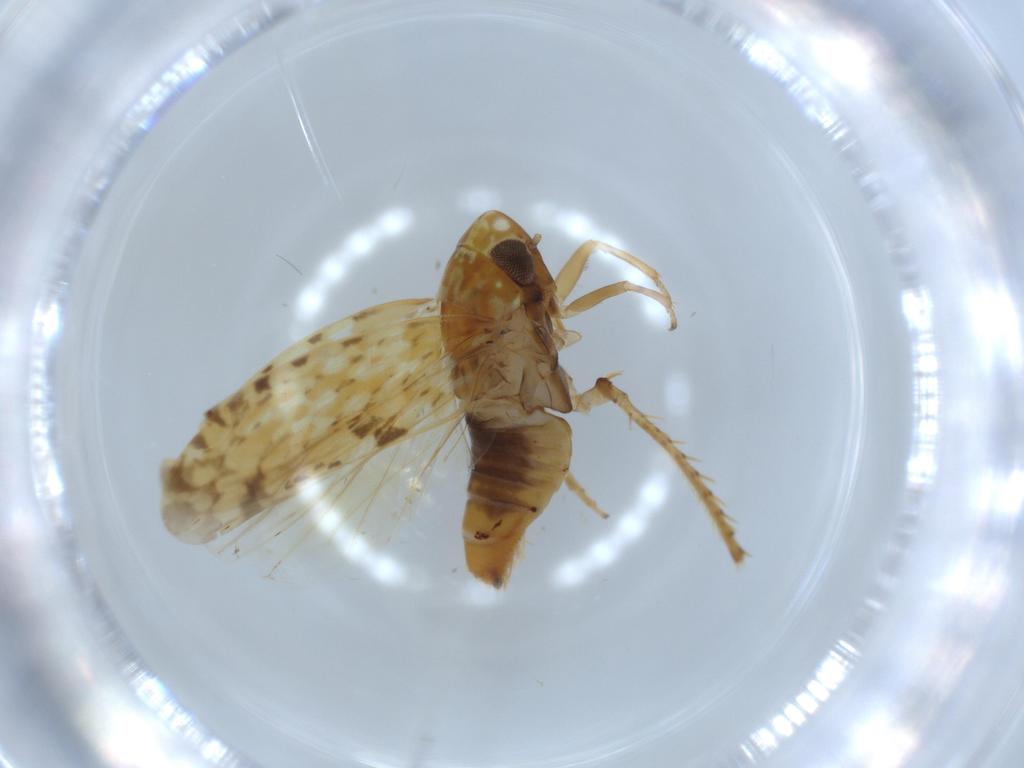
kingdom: Animalia
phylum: Arthropoda
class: Insecta
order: Hemiptera
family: Cicadellidae
